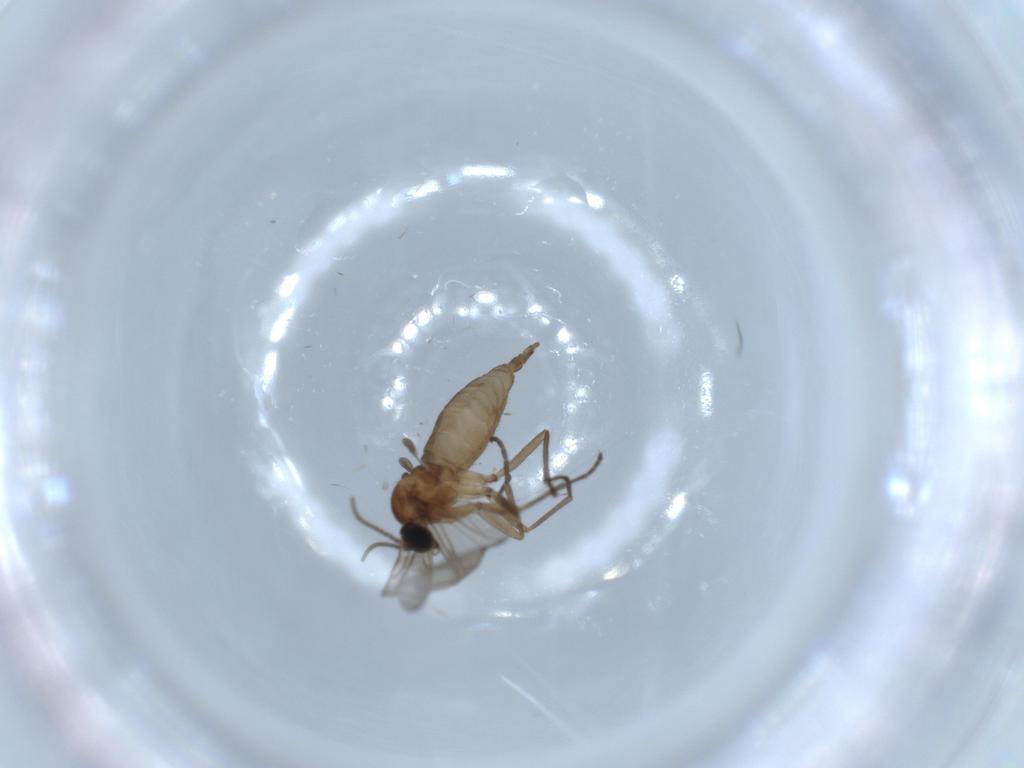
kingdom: Animalia
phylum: Arthropoda
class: Insecta
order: Diptera
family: Sciaridae
